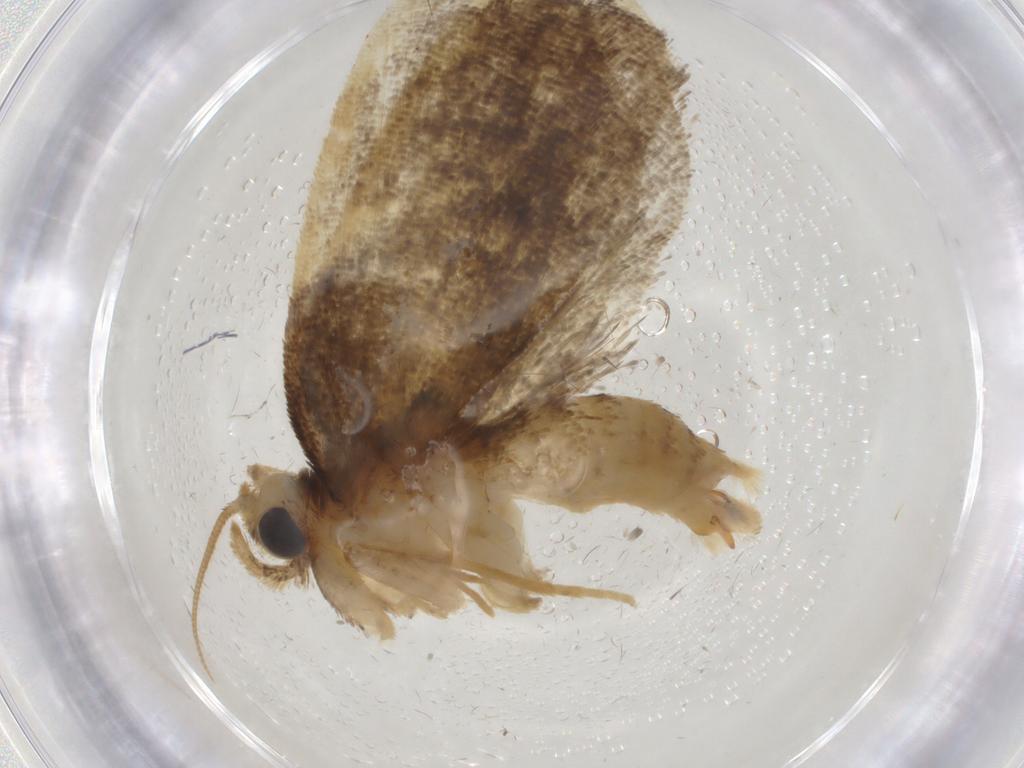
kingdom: Animalia
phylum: Arthropoda
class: Insecta
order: Lepidoptera
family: Psychidae
